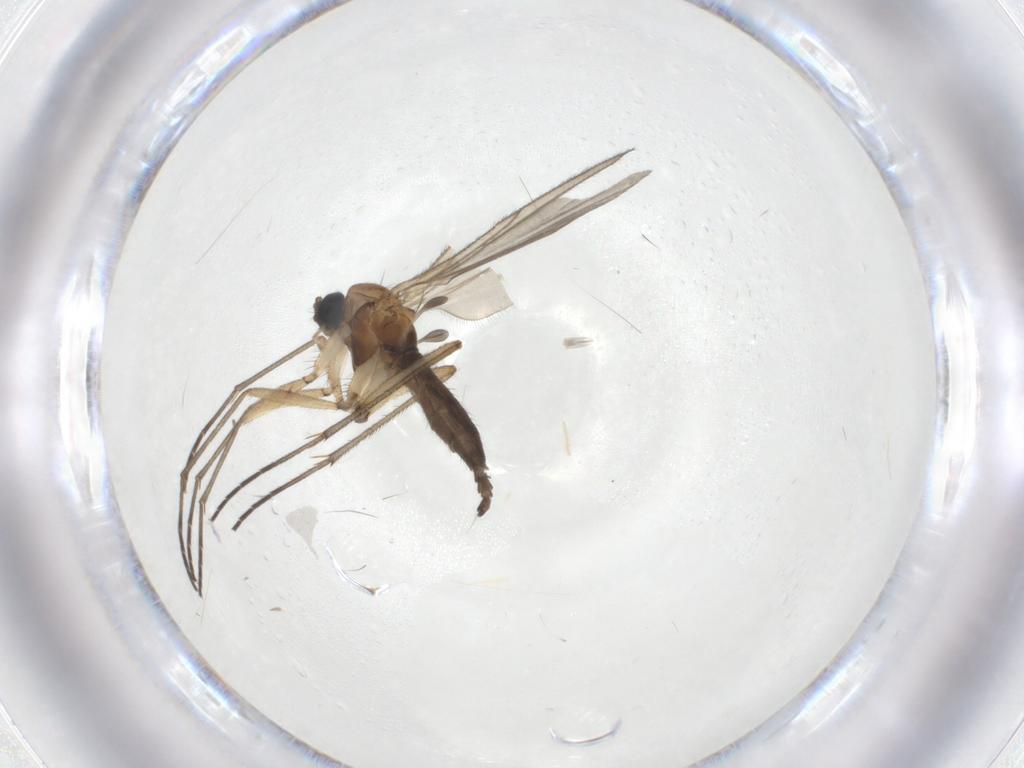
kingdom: Animalia
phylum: Arthropoda
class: Insecta
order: Diptera
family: Sciaridae
